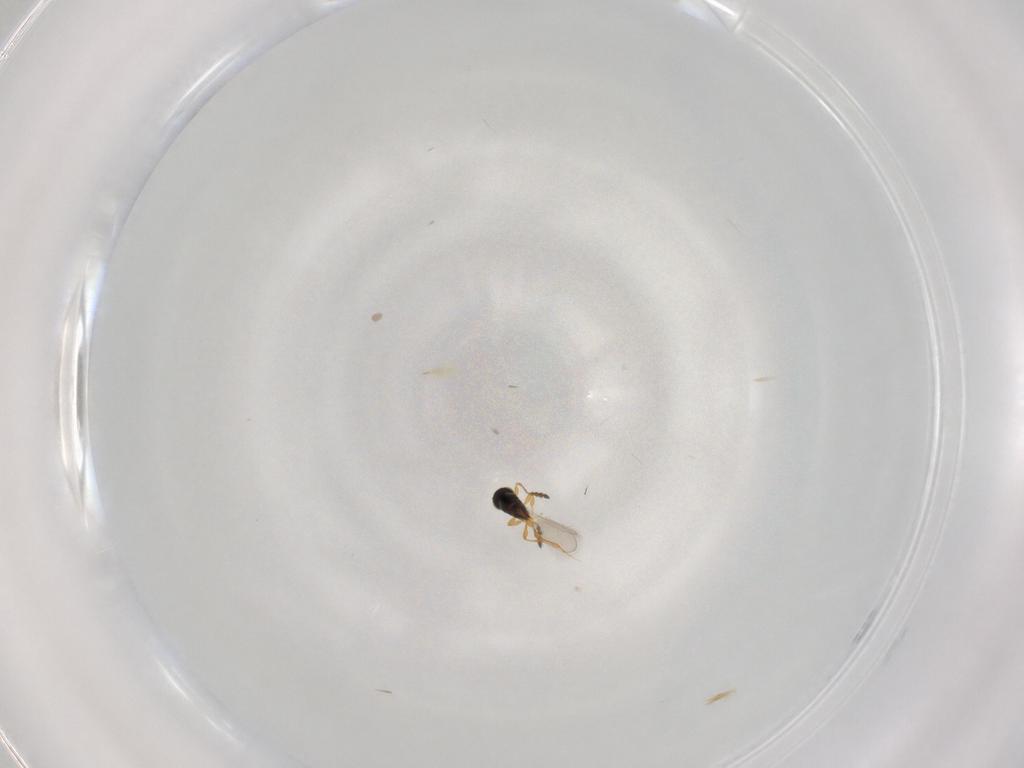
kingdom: Animalia
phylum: Arthropoda
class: Insecta
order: Hymenoptera
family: Platygastridae
